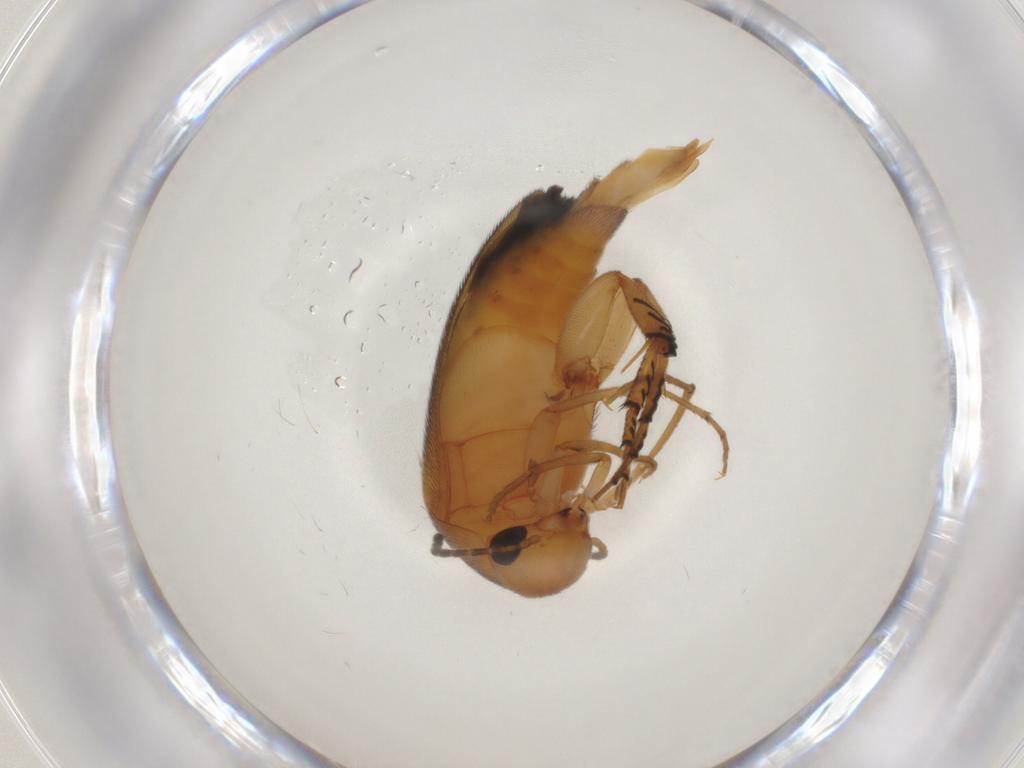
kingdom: Animalia
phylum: Arthropoda
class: Insecta
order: Coleoptera
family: Mordellidae
